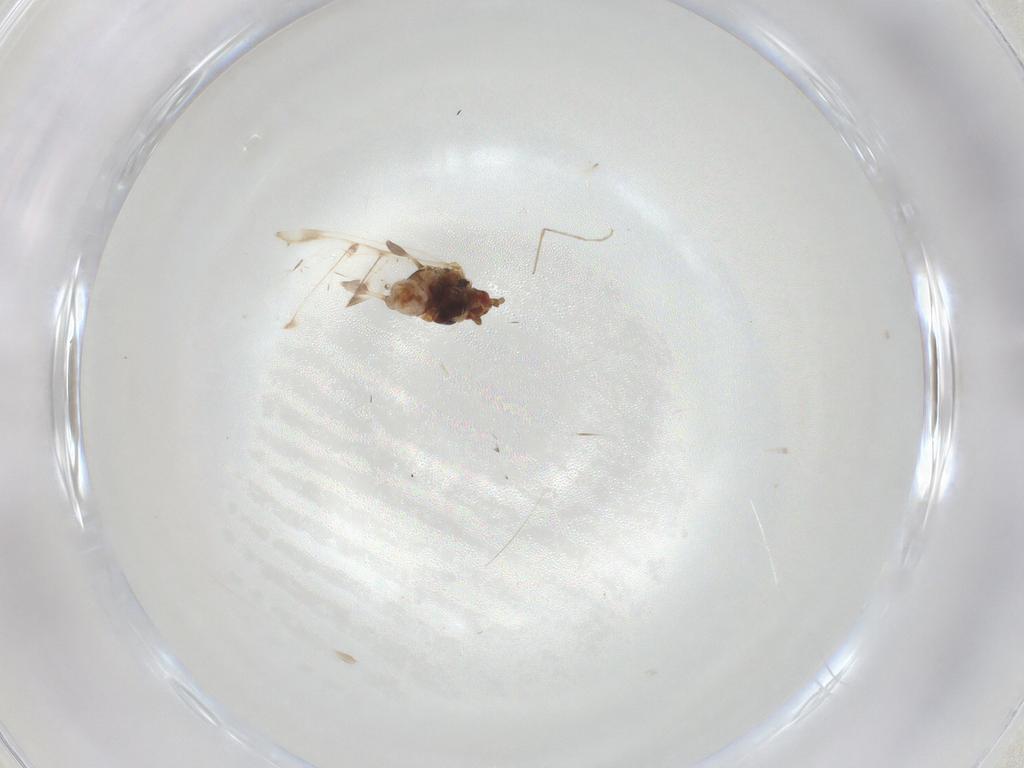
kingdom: Animalia
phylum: Arthropoda
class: Insecta
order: Hemiptera
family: Aphididae
